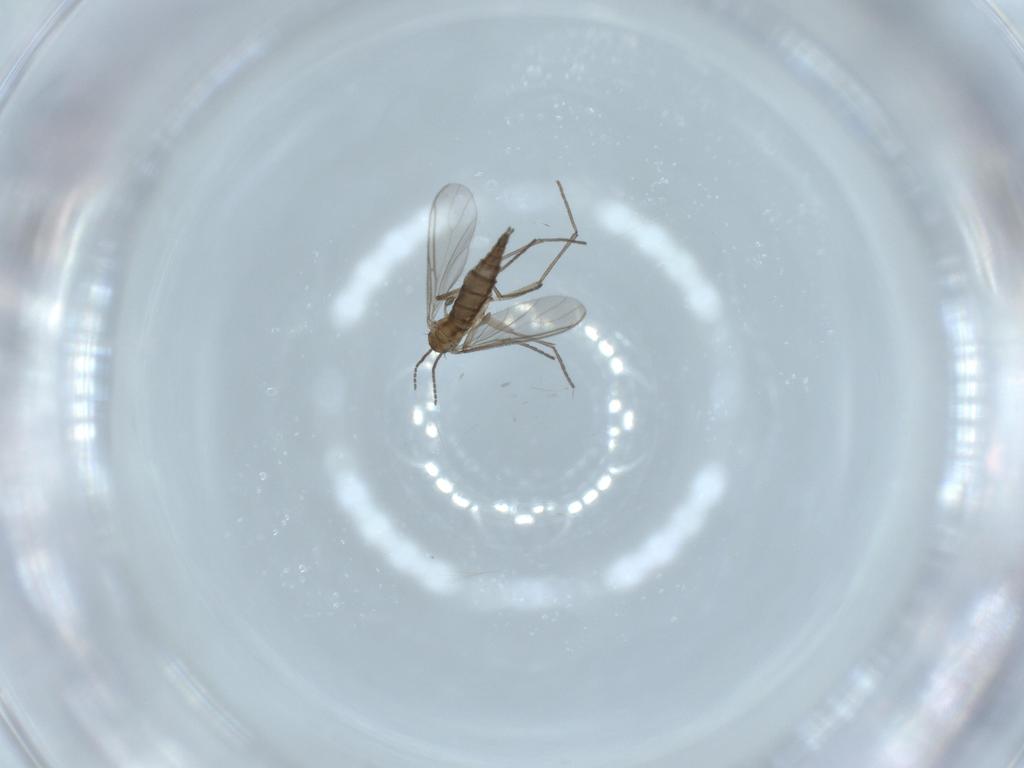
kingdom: Animalia
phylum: Arthropoda
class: Insecta
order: Diptera
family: Sciaridae
